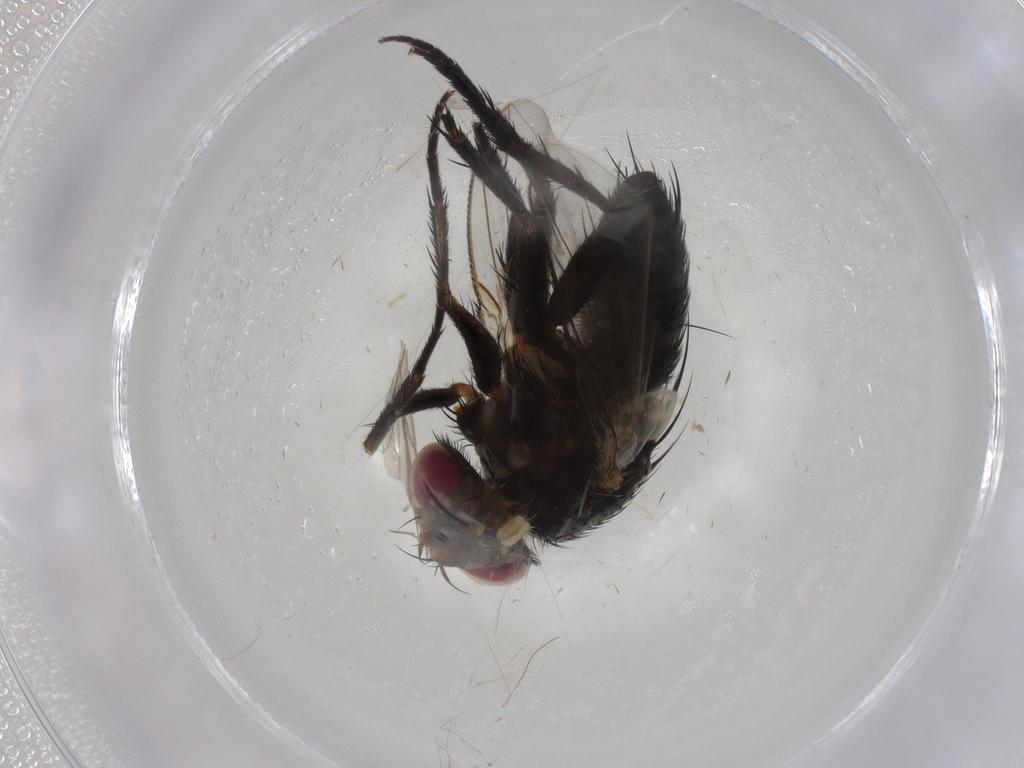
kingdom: Animalia
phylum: Arthropoda
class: Insecta
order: Diptera
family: Tachinidae
